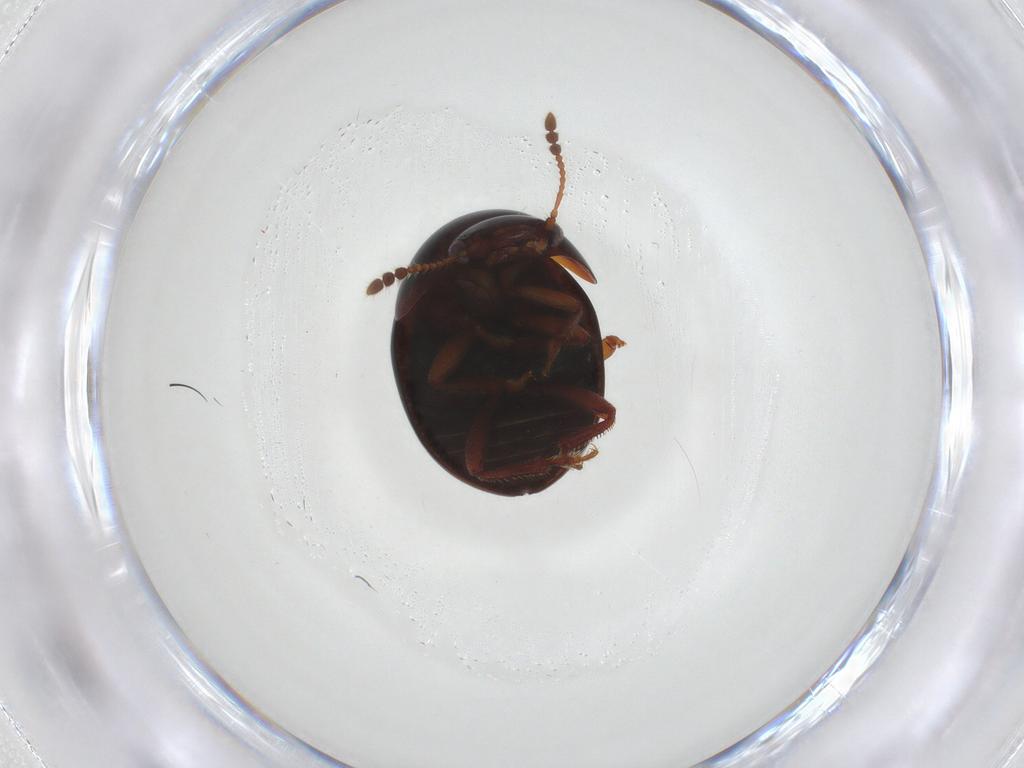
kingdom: Animalia
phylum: Arthropoda
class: Insecta
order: Coleoptera
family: Leiodidae
